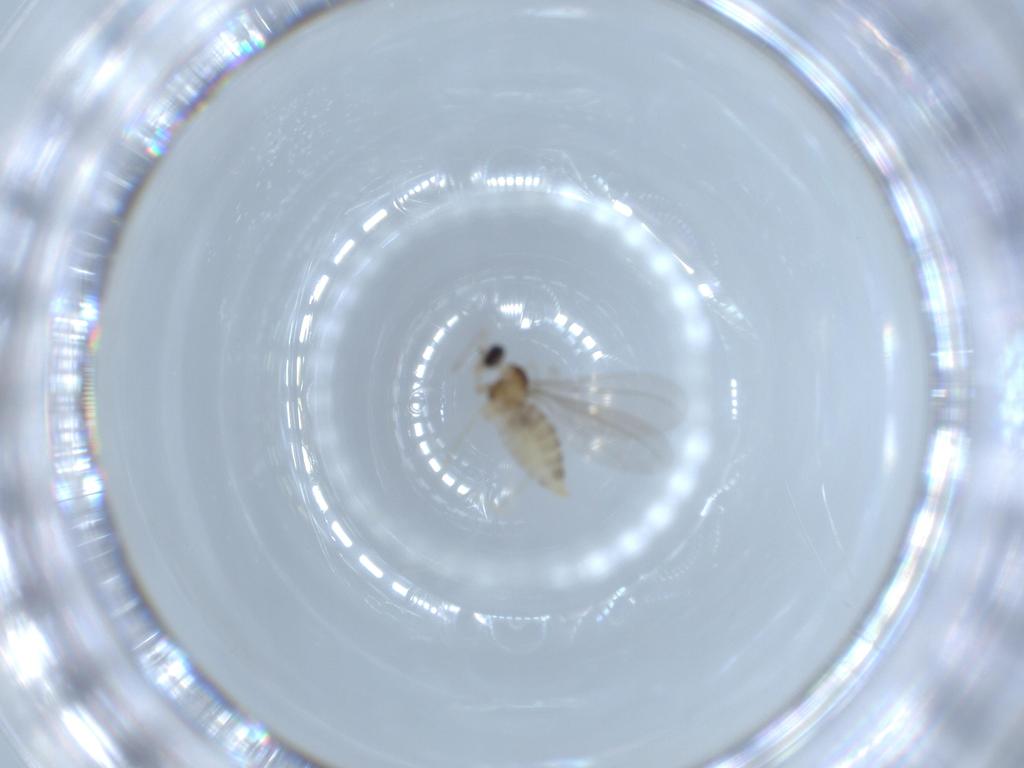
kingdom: Animalia
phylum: Arthropoda
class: Insecta
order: Diptera
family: Cecidomyiidae
